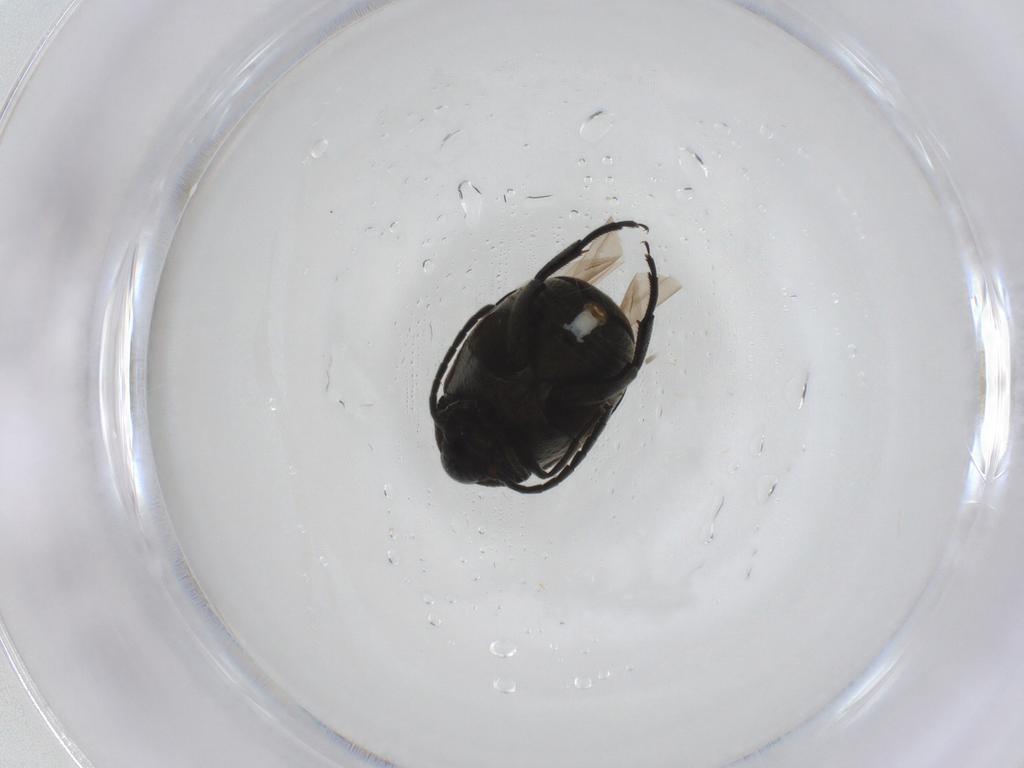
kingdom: Animalia
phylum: Arthropoda
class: Insecta
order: Coleoptera
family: Chrysomelidae
